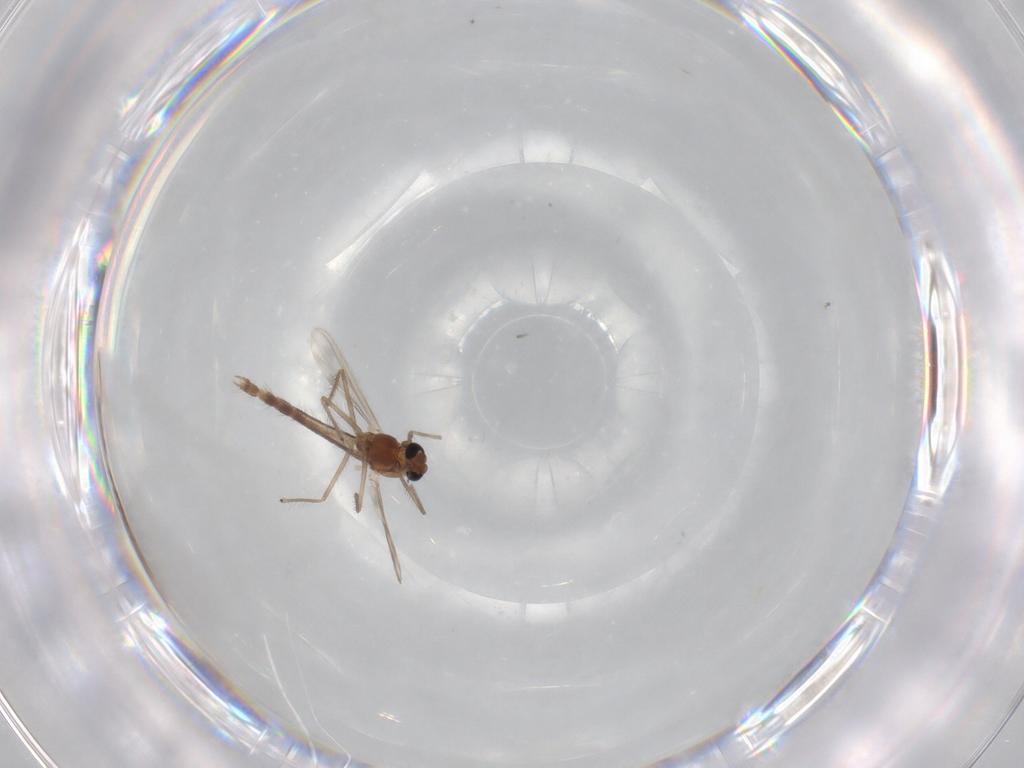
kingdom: Animalia
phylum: Arthropoda
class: Insecta
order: Diptera
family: Chironomidae
